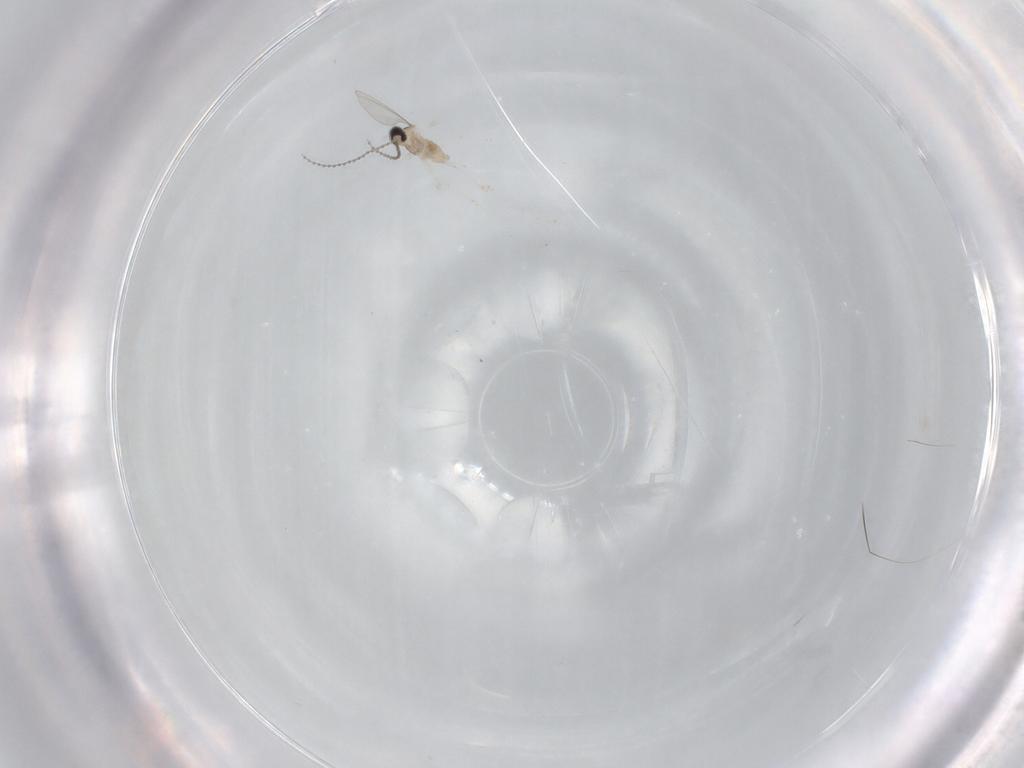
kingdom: Animalia
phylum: Arthropoda
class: Insecta
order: Diptera
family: Cecidomyiidae
